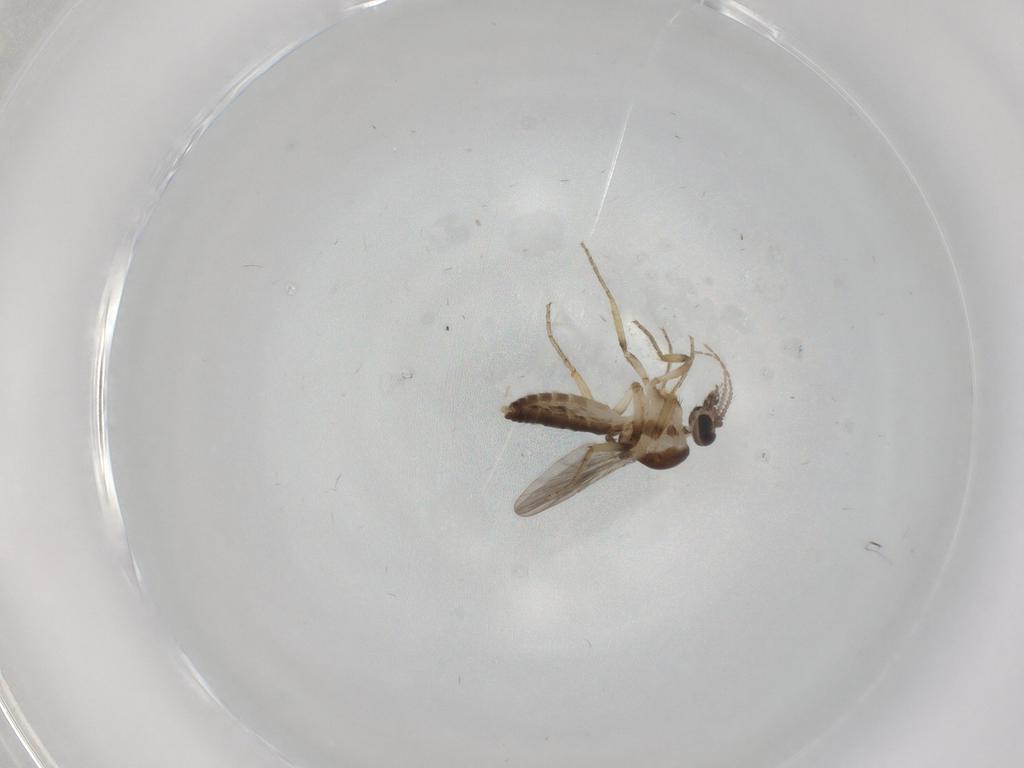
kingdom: Animalia
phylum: Arthropoda
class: Insecta
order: Diptera
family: Ceratopogonidae
